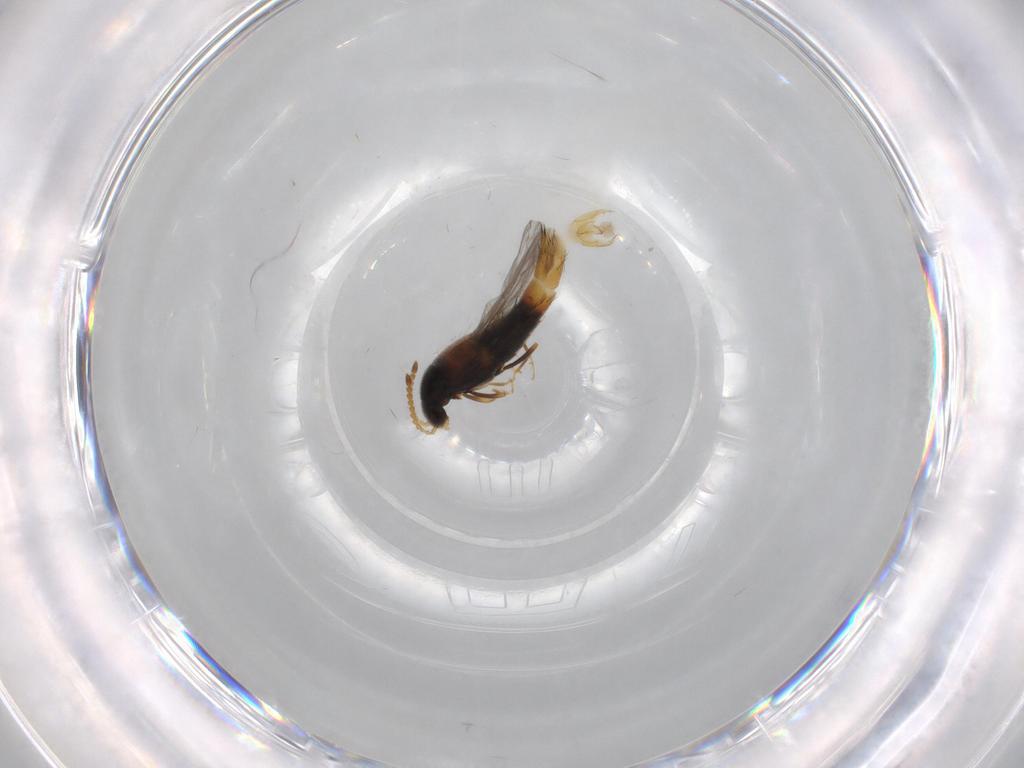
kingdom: Animalia
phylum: Arthropoda
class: Insecta
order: Coleoptera
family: Staphylinidae
